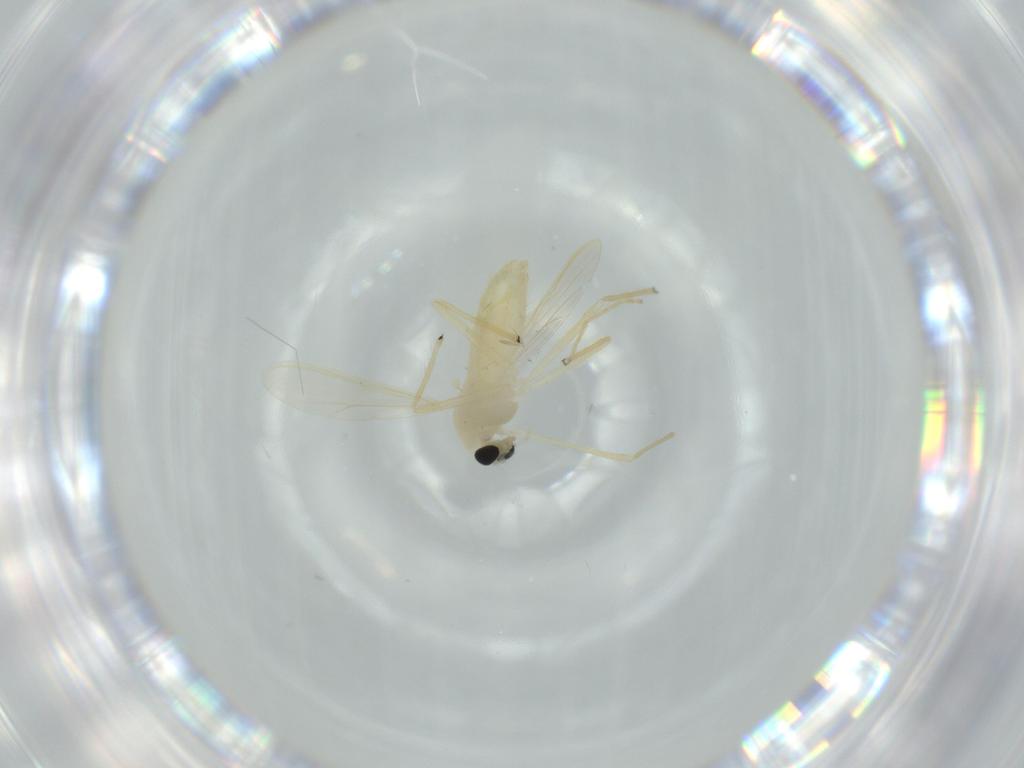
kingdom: Animalia
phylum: Arthropoda
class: Insecta
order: Diptera
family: Chironomidae
